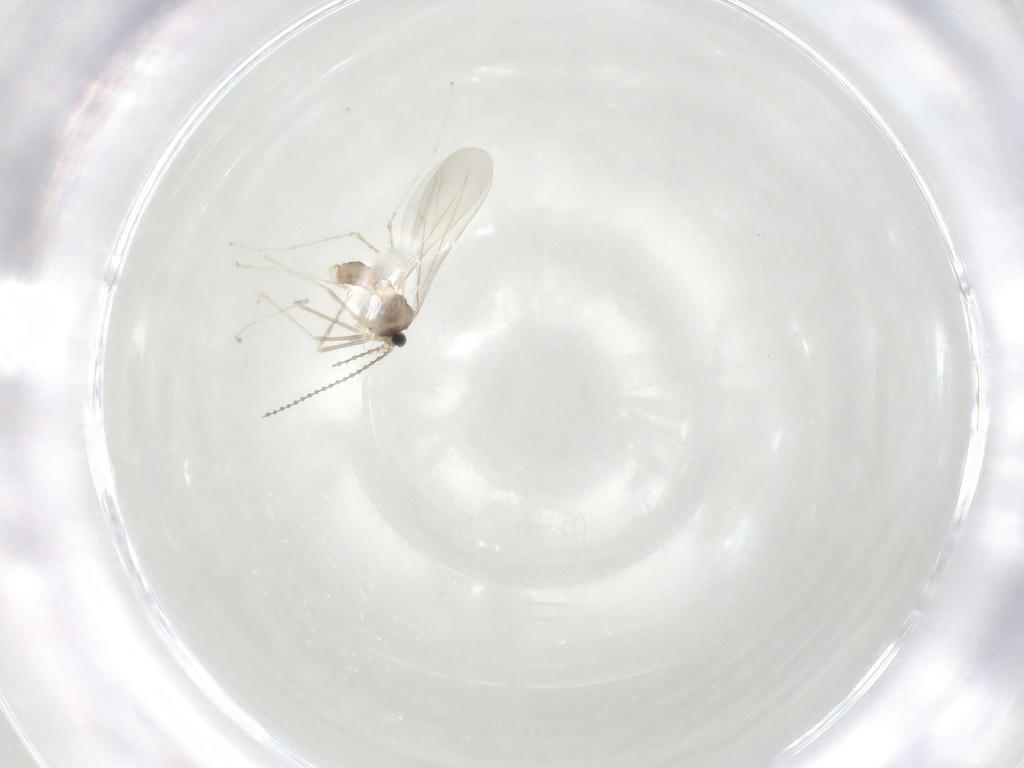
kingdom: Animalia
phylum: Arthropoda
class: Insecta
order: Diptera
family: Cecidomyiidae
